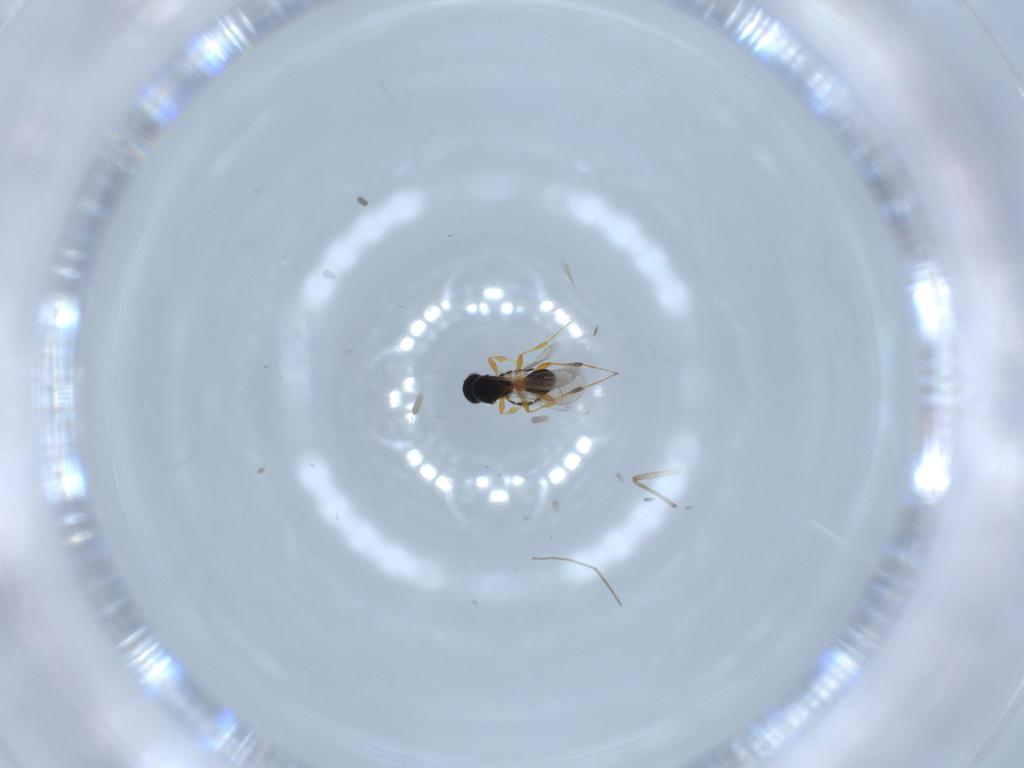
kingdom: Animalia
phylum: Arthropoda
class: Insecta
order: Hymenoptera
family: Platygastridae
